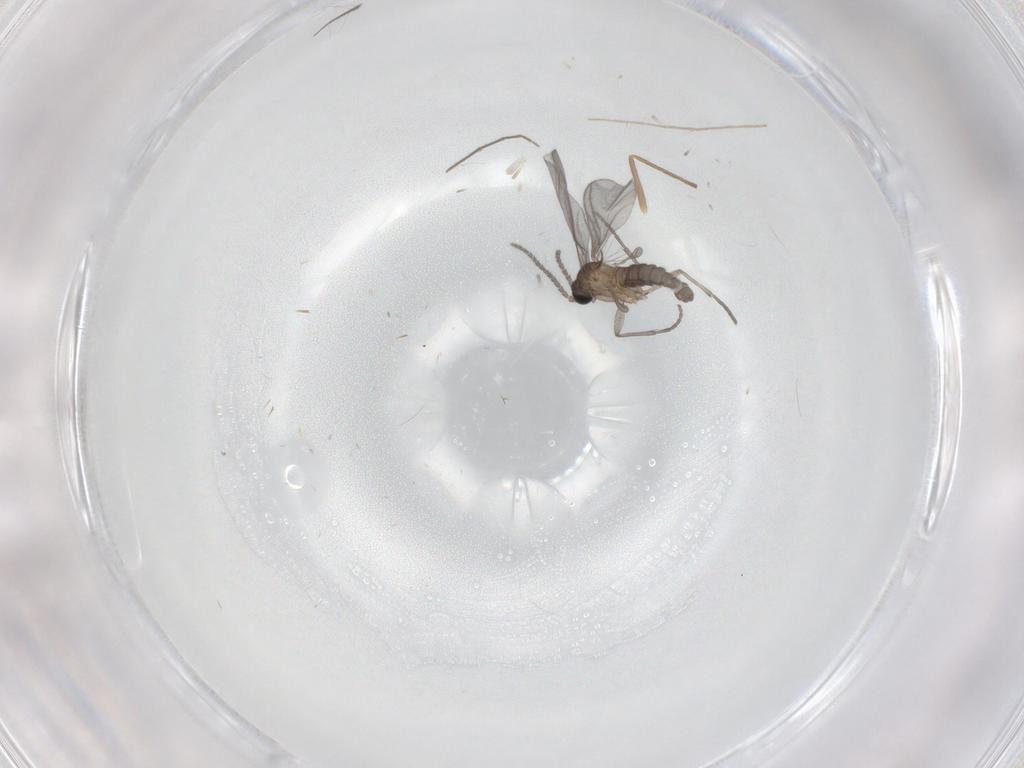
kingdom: Animalia
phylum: Arthropoda
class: Insecta
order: Diptera
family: Sciaridae
